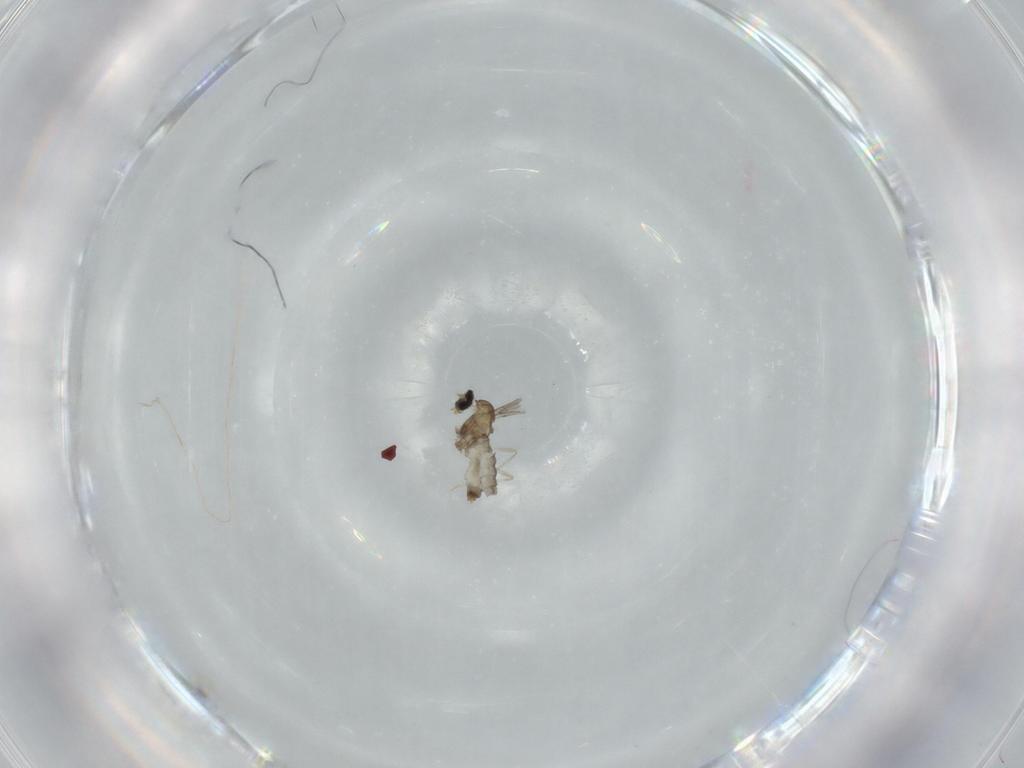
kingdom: Animalia
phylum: Arthropoda
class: Insecta
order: Diptera
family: Cecidomyiidae
